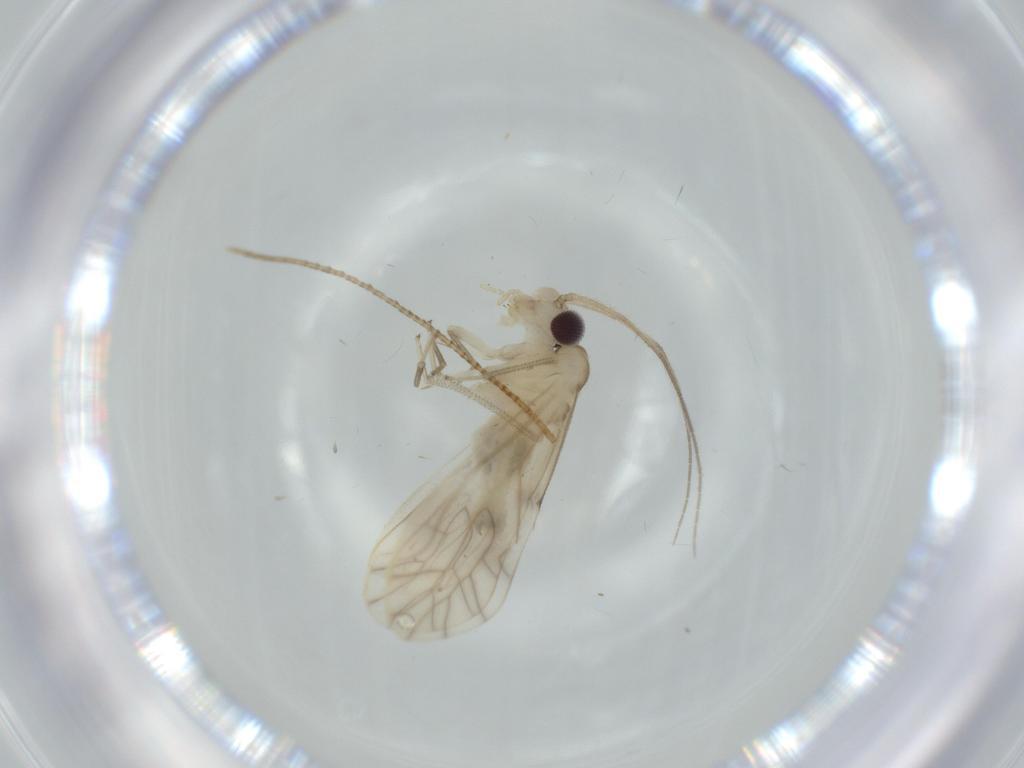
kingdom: Animalia
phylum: Arthropoda
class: Insecta
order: Psocodea
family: Caeciliusidae
